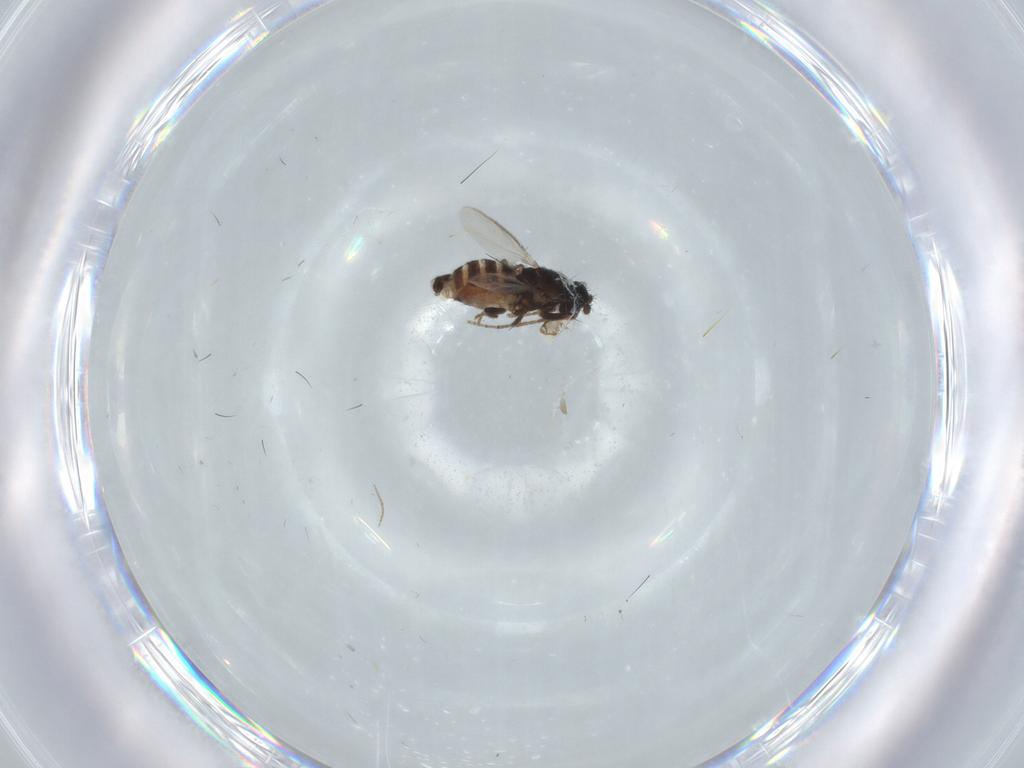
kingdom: Animalia
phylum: Arthropoda
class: Insecta
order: Diptera
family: Sphaeroceridae
